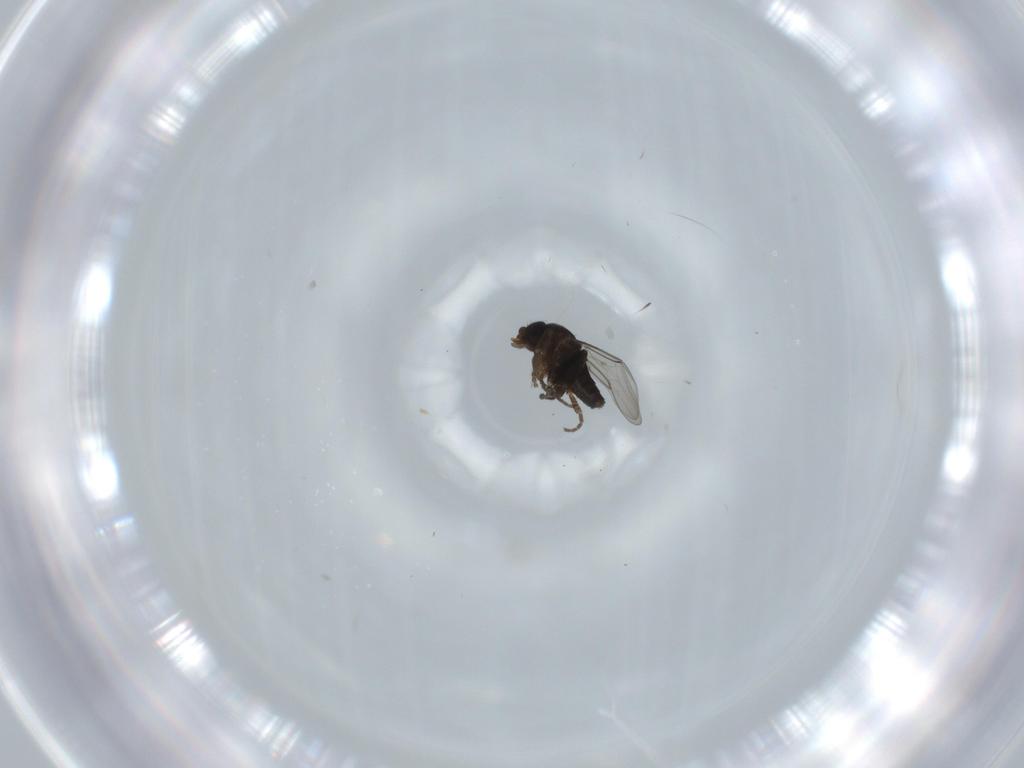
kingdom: Animalia
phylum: Arthropoda
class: Insecta
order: Diptera
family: Phoridae
